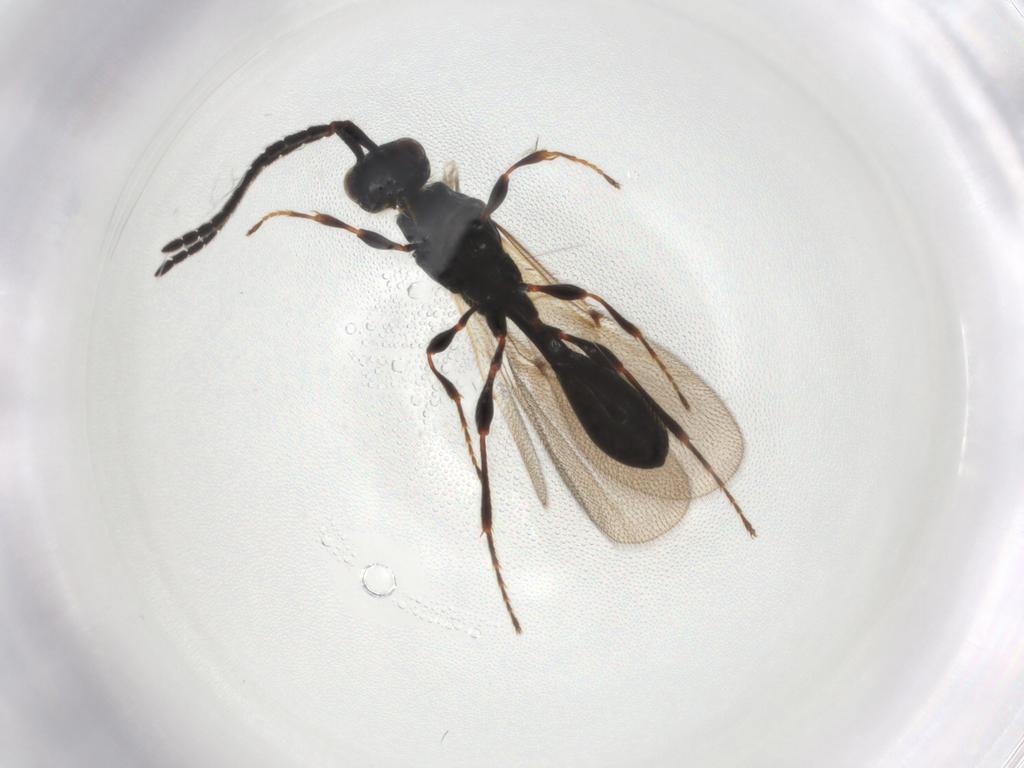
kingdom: Animalia
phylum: Arthropoda
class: Insecta
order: Hymenoptera
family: Diapriidae
